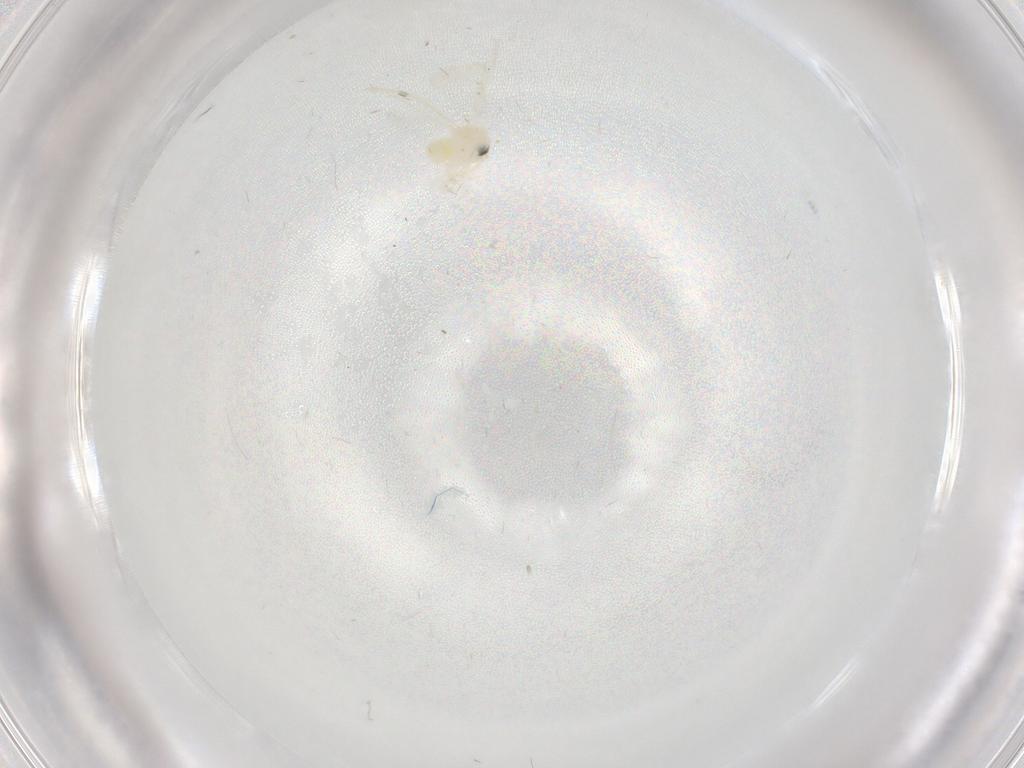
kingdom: Animalia
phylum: Arthropoda
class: Insecta
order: Hemiptera
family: Aleyrodidae
